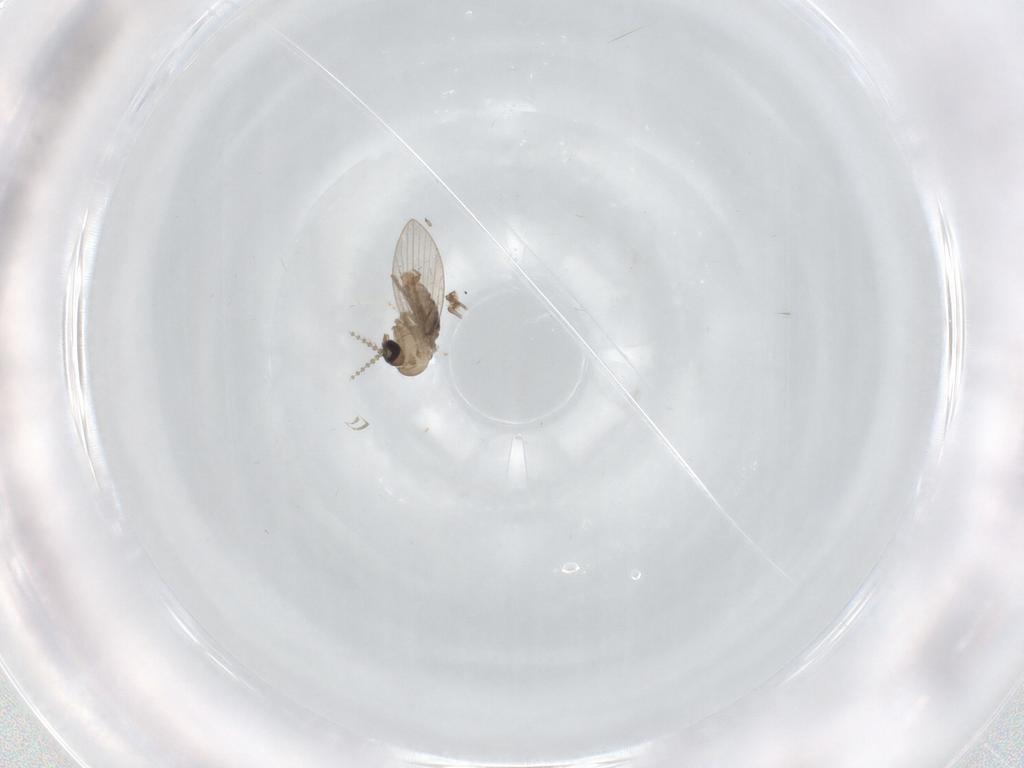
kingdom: Animalia
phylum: Arthropoda
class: Insecta
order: Diptera
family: Psychodidae
